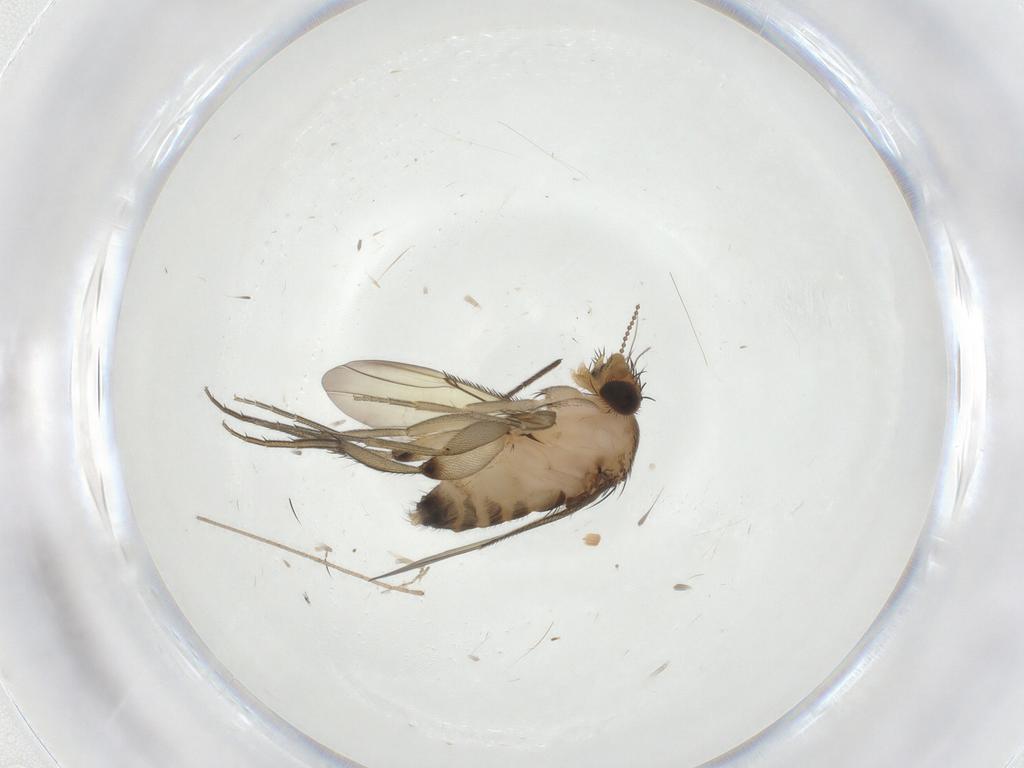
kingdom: Animalia
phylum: Arthropoda
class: Insecta
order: Diptera
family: Phoridae
